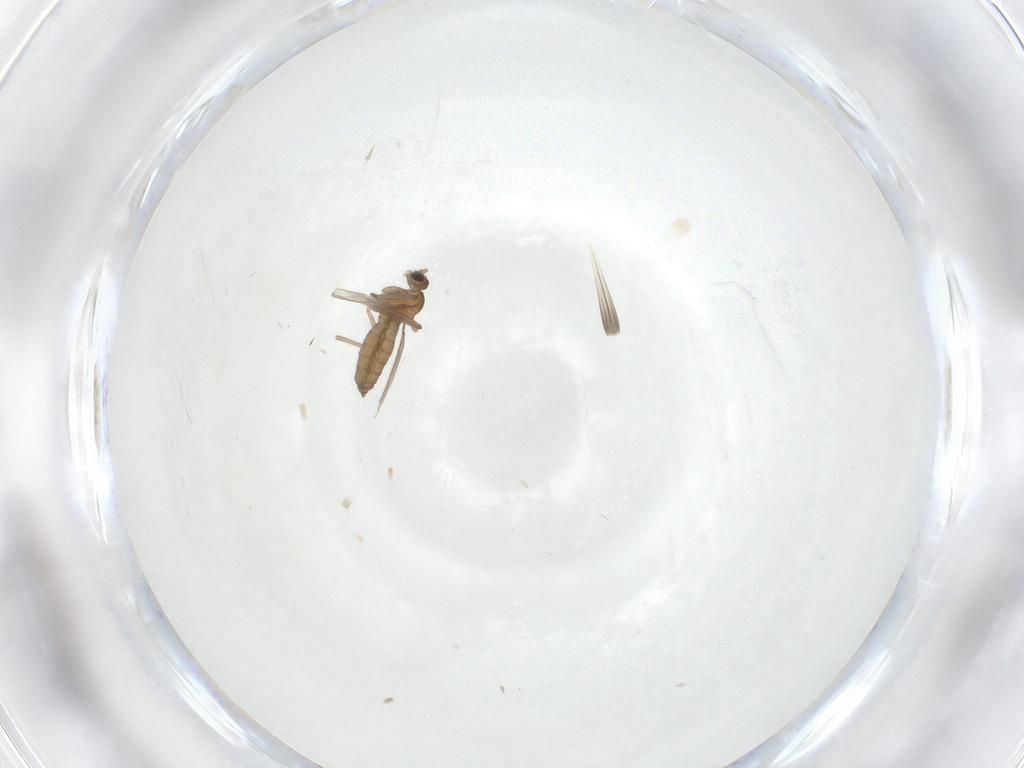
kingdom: Animalia
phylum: Arthropoda
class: Insecta
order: Diptera
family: Cecidomyiidae
